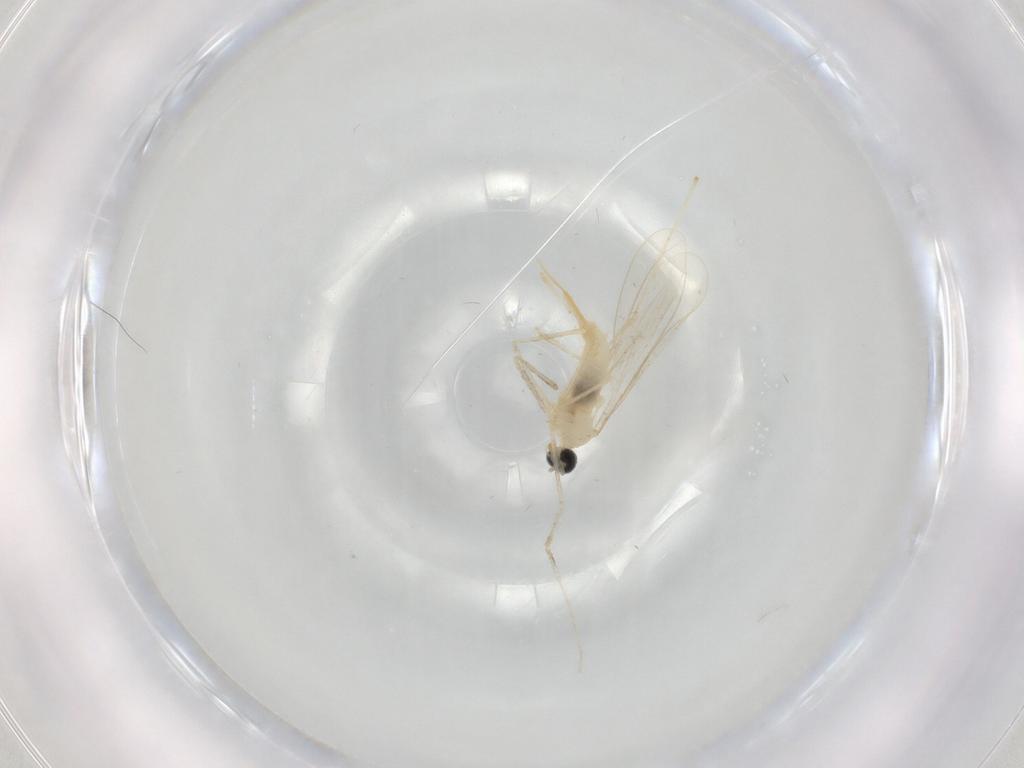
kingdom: Animalia
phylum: Arthropoda
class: Insecta
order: Diptera
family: Cecidomyiidae
